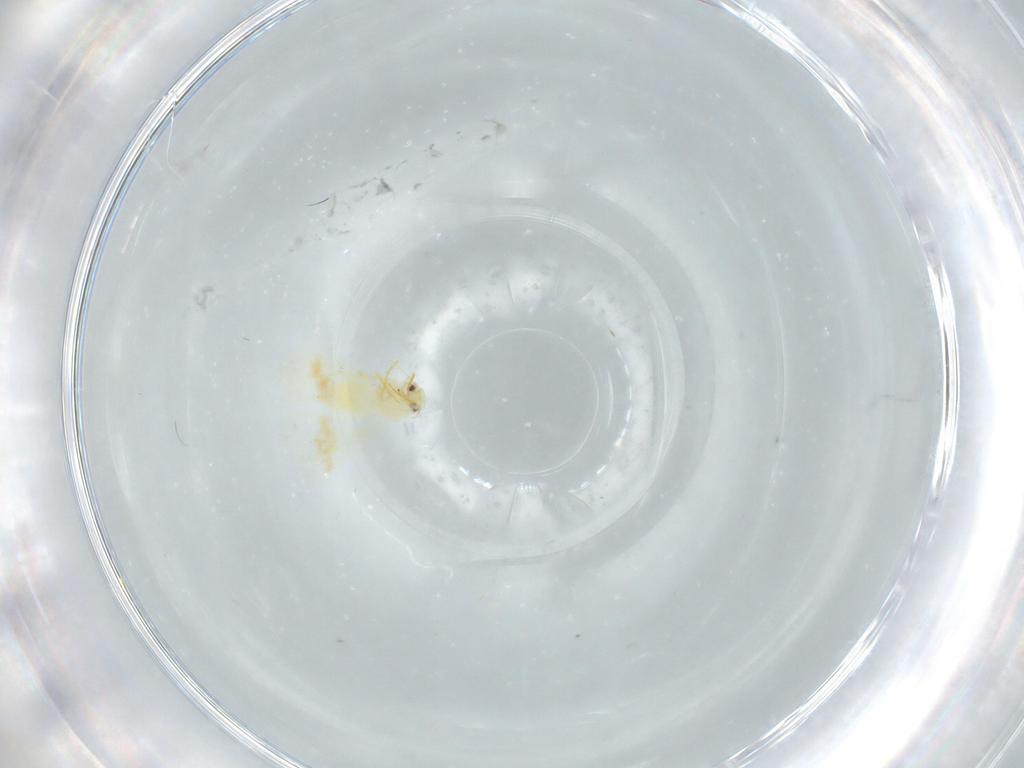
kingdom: Animalia
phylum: Arthropoda
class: Insecta
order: Hemiptera
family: Aleyrodidae
